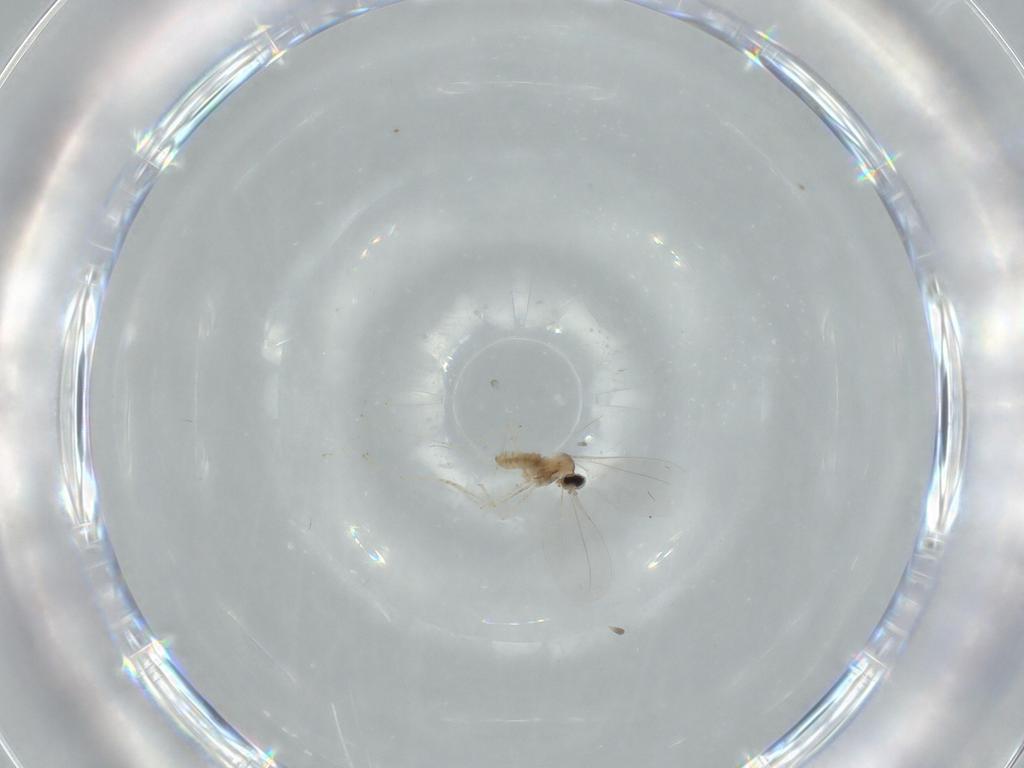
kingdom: Animalia
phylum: Arthropoda
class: Insecta
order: Diptera
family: Cecidomyiidae
